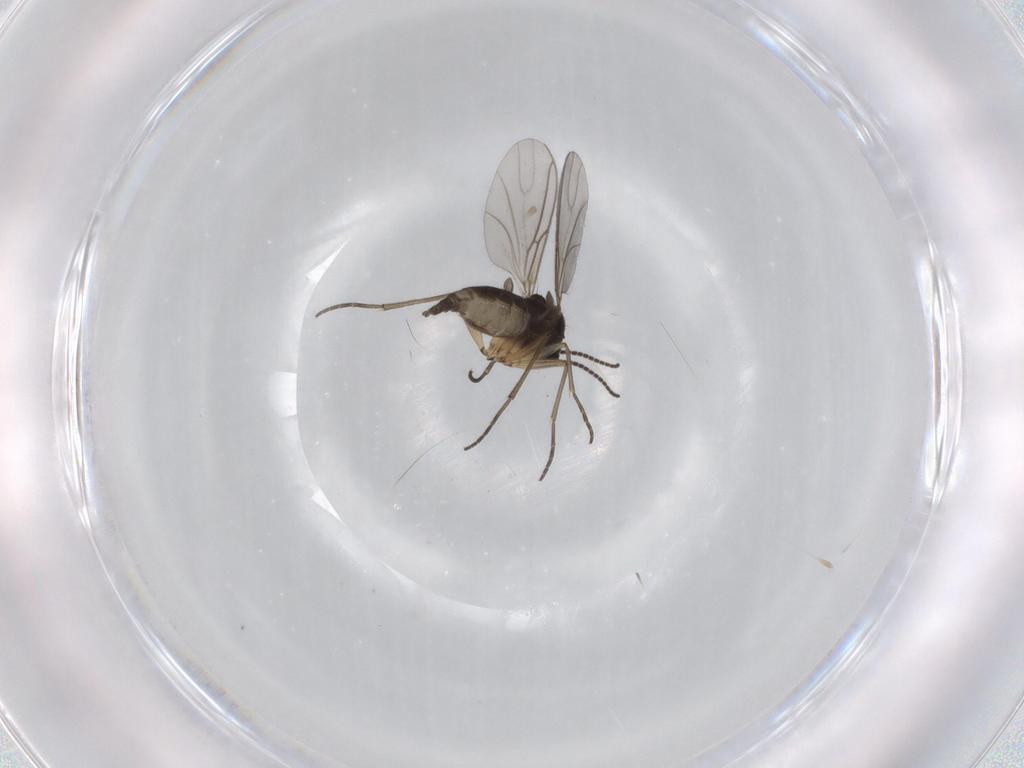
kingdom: Animalia
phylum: Arthropoda
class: Insecta
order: Diptera
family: Sciaridae
